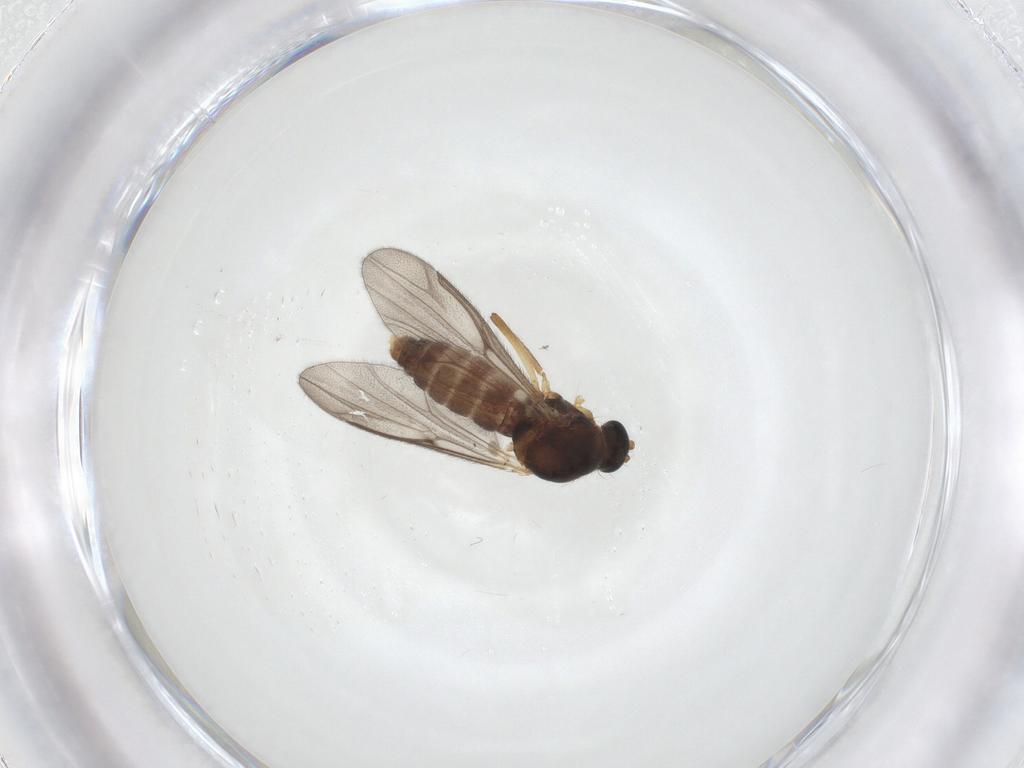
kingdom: Animalia
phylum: Arthropoda
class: Insecta
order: Diptera
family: Ceratopogonidae
